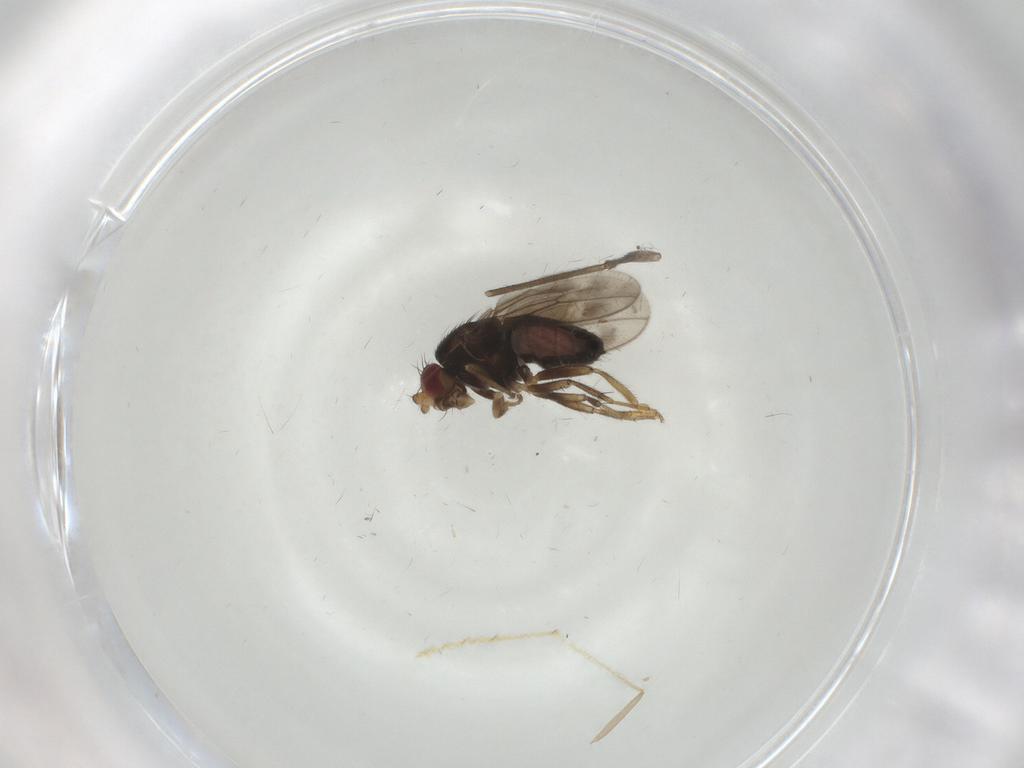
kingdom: Animalia
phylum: Arthropoda
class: Insecta
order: Diptera
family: Sphaeroceridae
